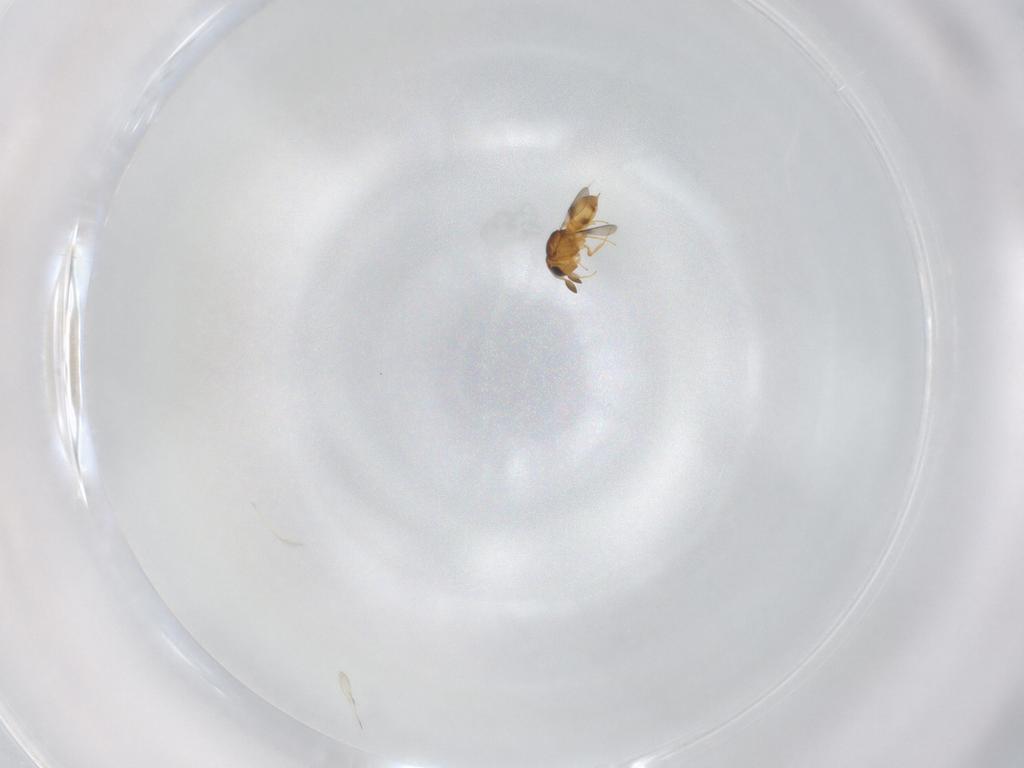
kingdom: Animalia
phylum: Arthropoda
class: Insecta
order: Hymenoptera
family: Scelionidae
